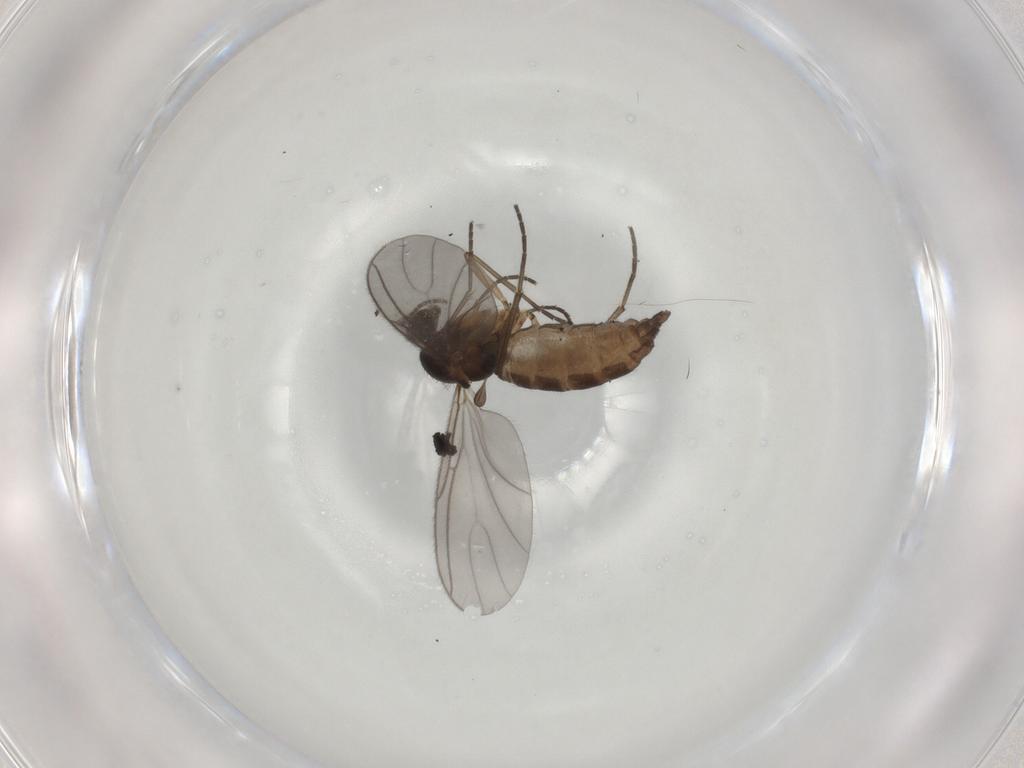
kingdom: Animalia
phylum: Arthropoda
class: Insecta
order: Diptera
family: Sciaridae
